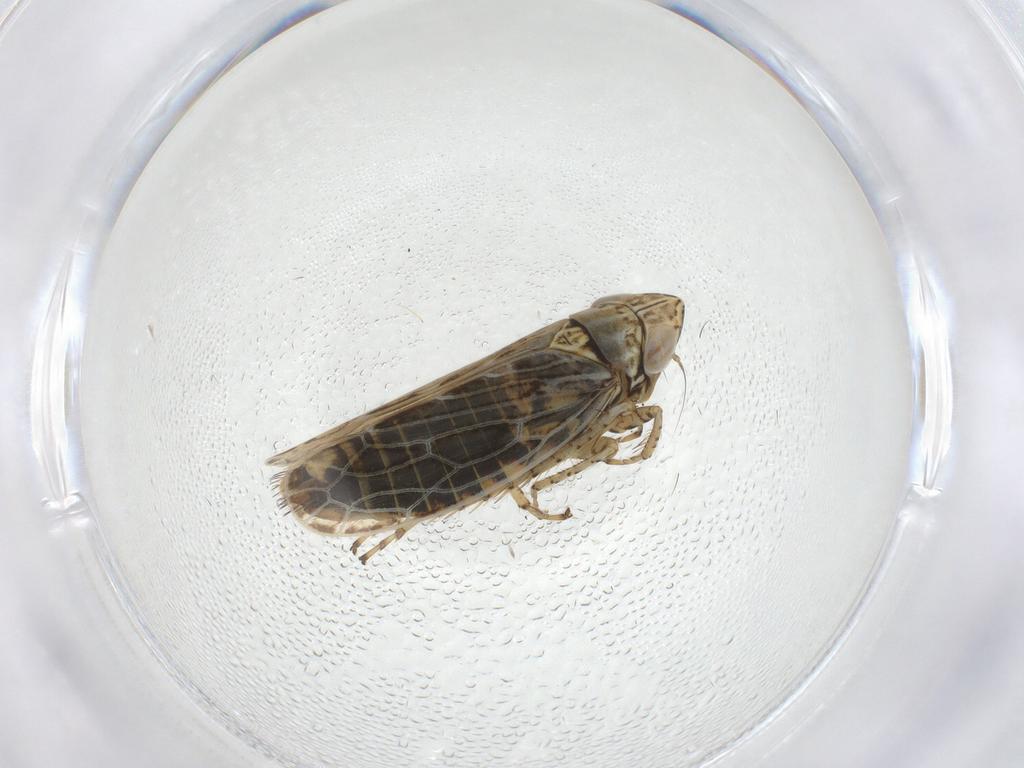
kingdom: Animalia
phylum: Arthropoda
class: Insecta
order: Hemiptera
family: Cicadellidae
